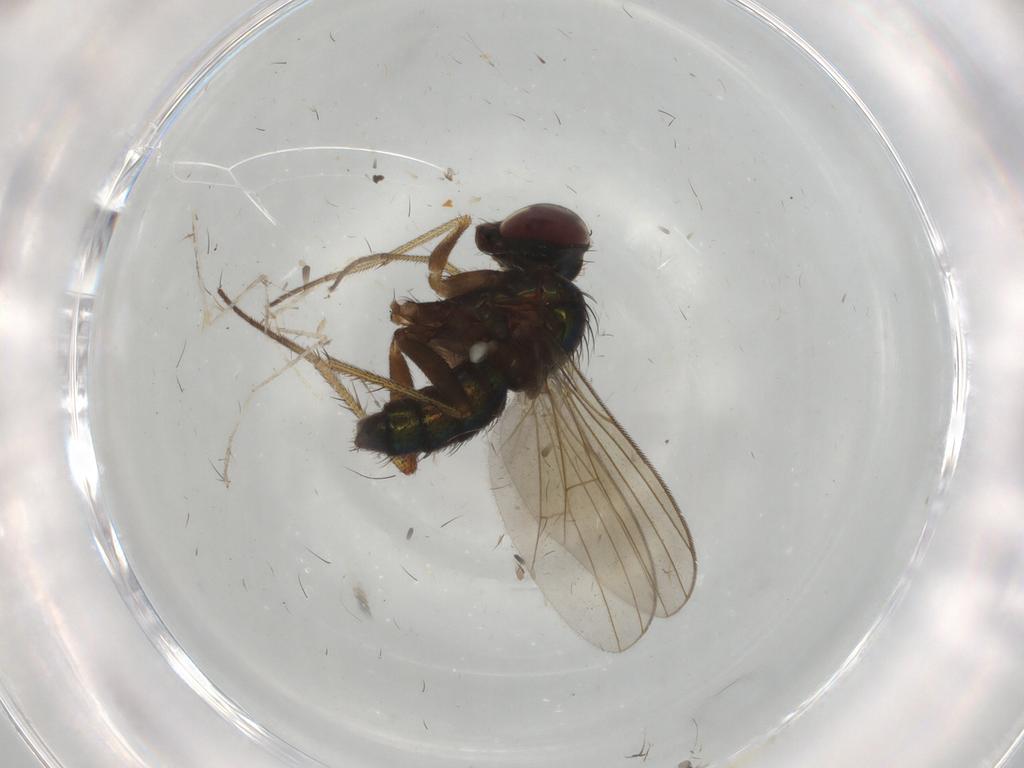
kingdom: Animalia
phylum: Arthropoda
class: Insecta
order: Diptera
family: Dolichopodidae
